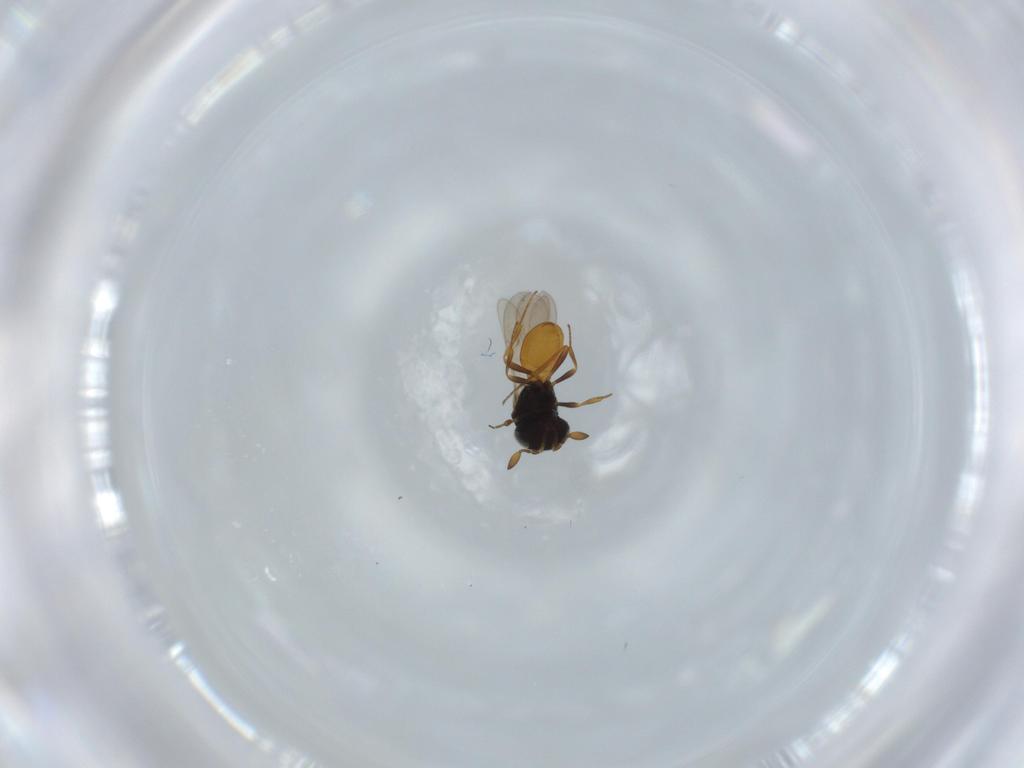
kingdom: Animalia
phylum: Arthropoda
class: Insecta
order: Hymenoptera
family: Scelionidae
